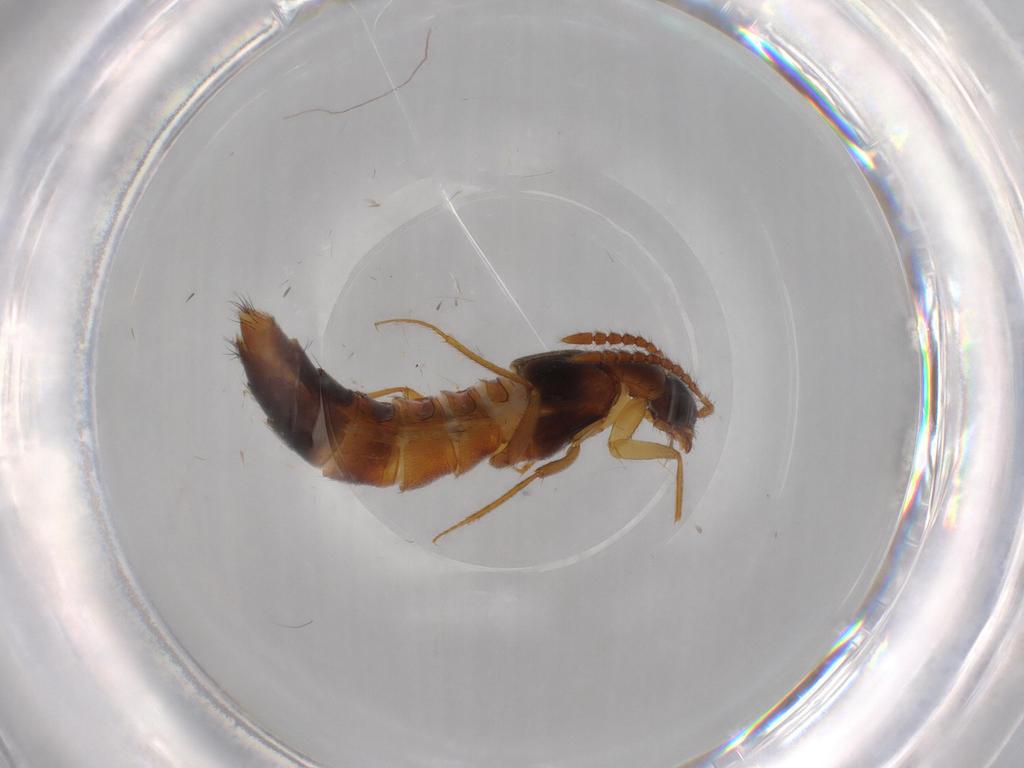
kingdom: Animalia
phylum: Arthropoda
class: Insecta
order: Coleoptera
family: Staphylinidae
